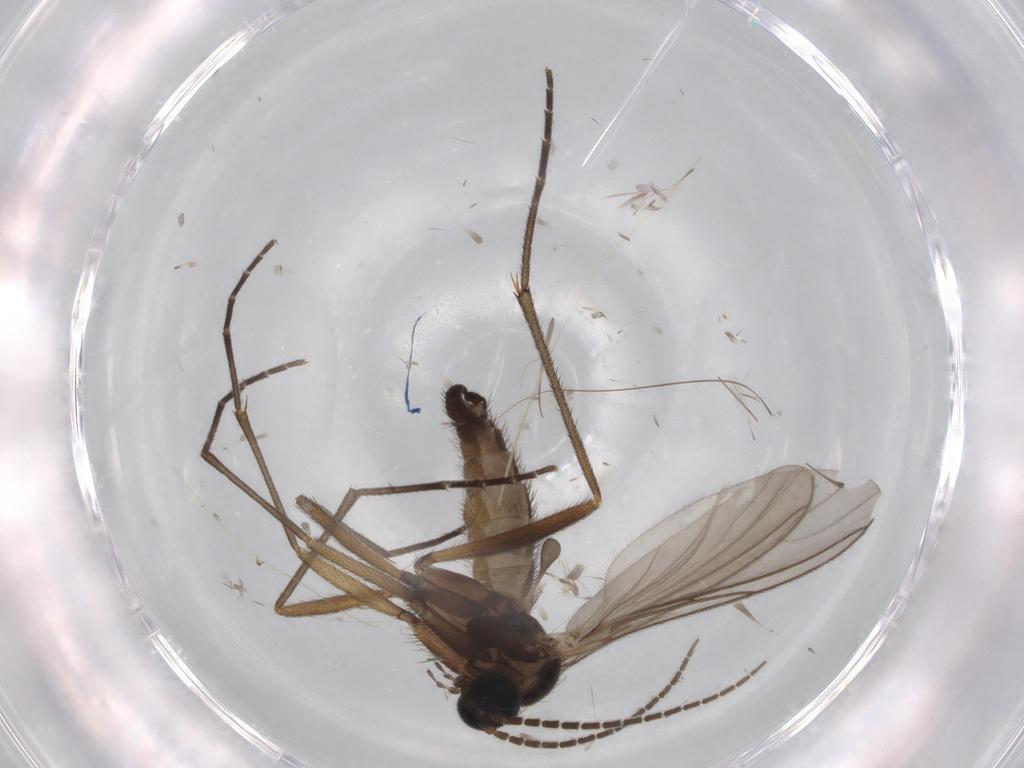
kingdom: Animalia
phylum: Arthropoda
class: Insecta
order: Diptera
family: Sciaridae
